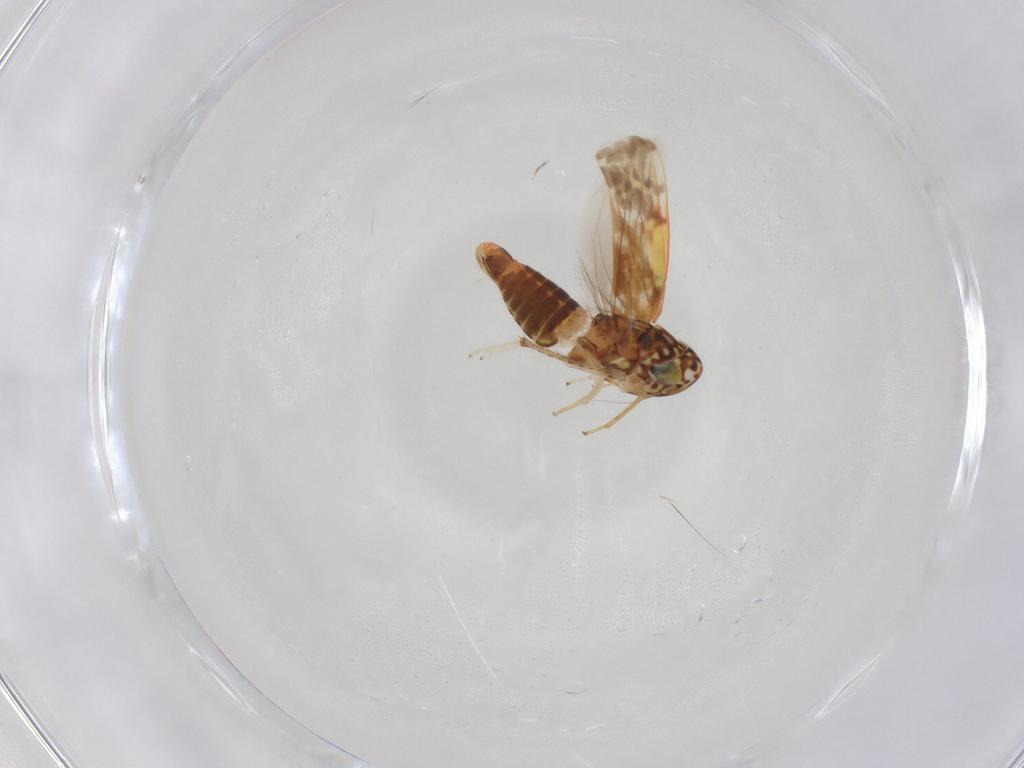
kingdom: Animalia
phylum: Arthropoda
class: Insecta
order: Hemiptera
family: Cicadellidae
